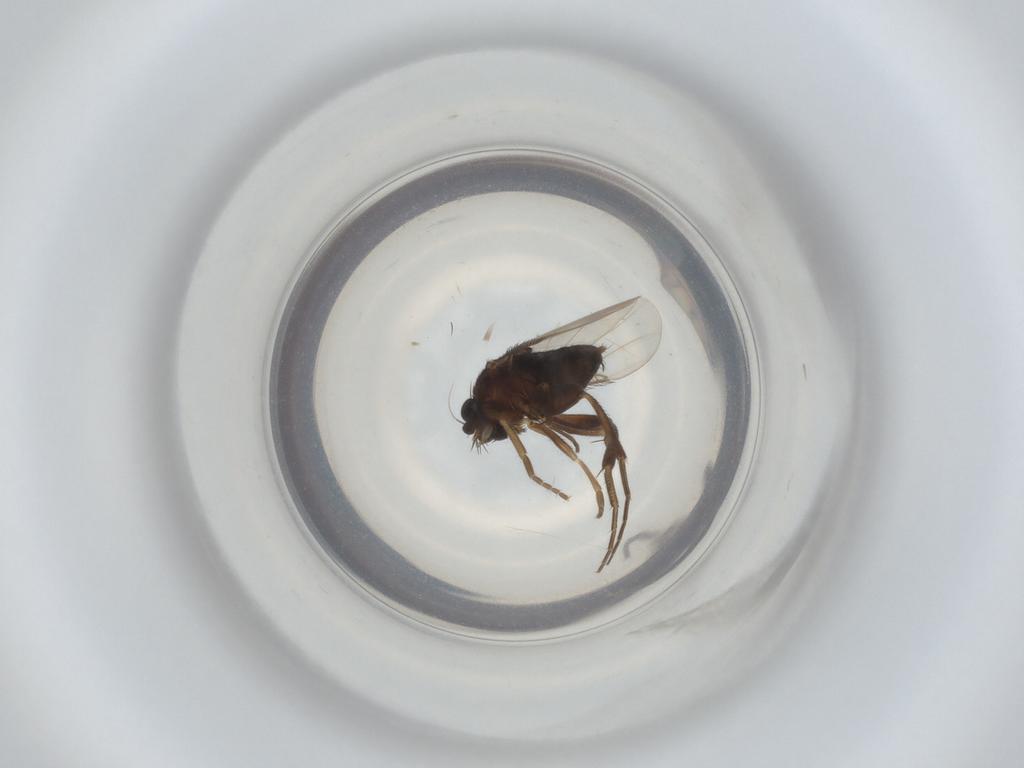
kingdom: Animalia
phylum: Arthropoda
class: Insecta
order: Diptera
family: Phoridae
